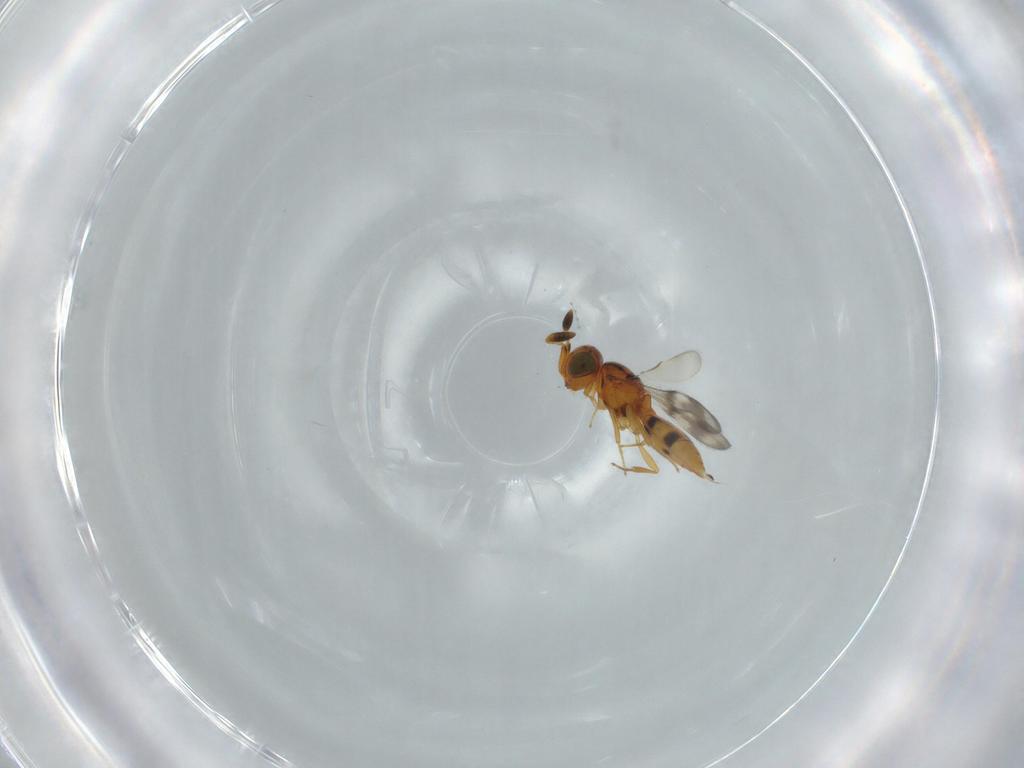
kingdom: Animalia
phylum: Arthropoda
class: Insecta
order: Hymenoptera
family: Scelionidae
